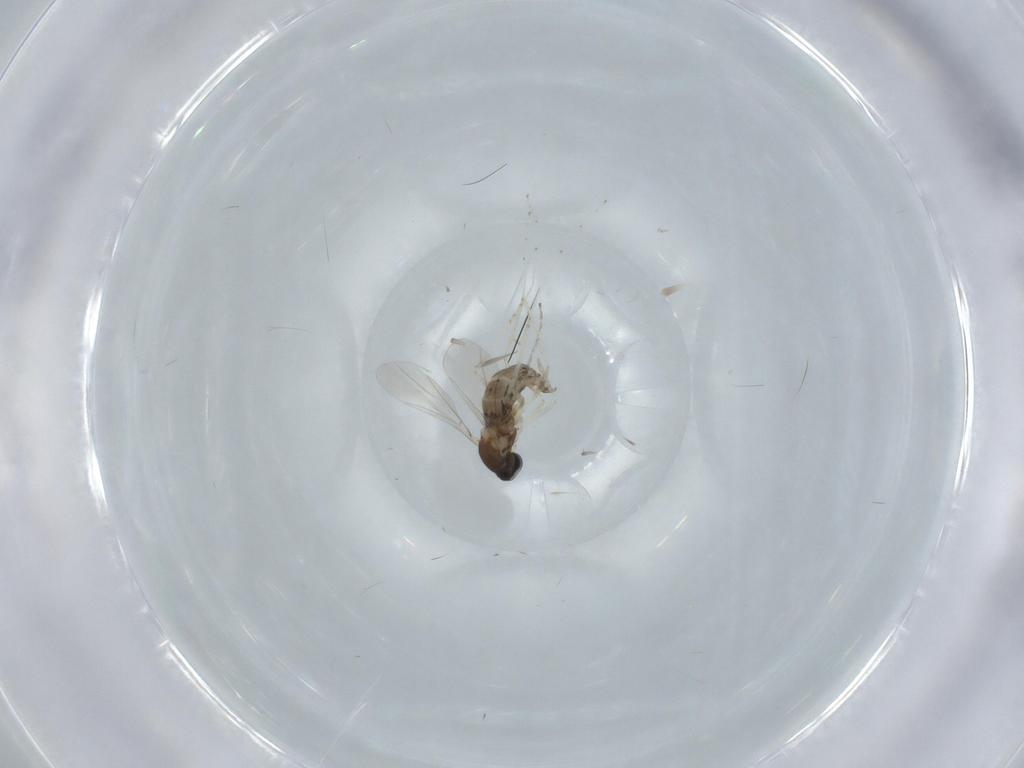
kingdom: Animalia
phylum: Arthropoda
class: Insecta
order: Diptera
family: Cecidomyiidae
